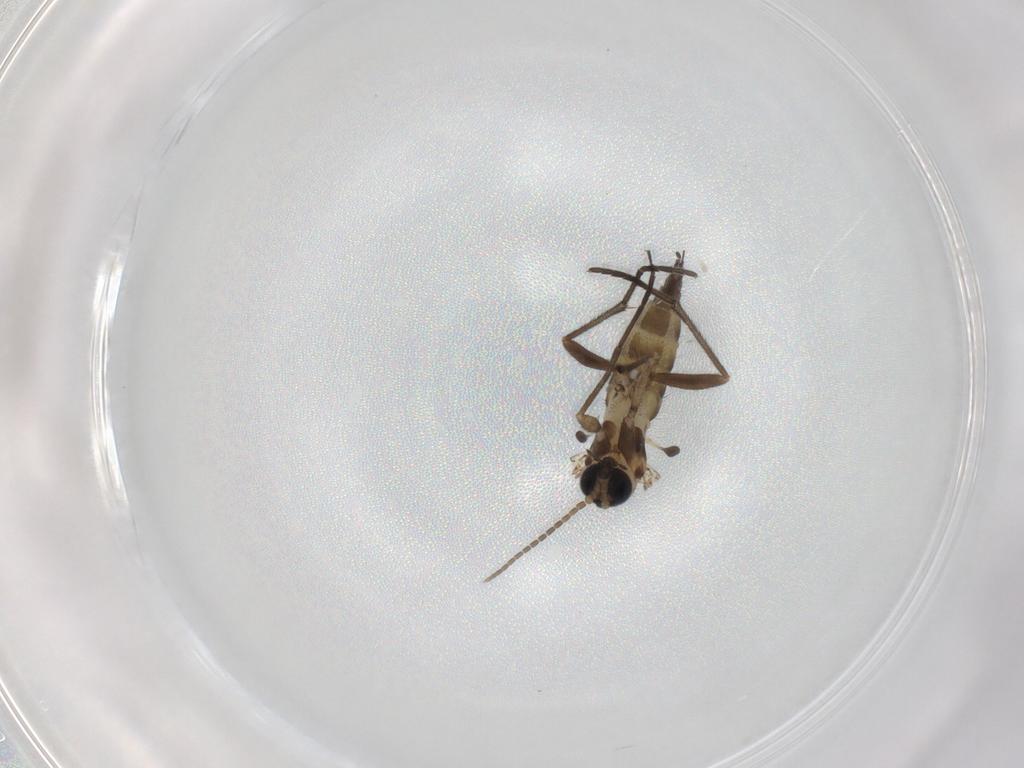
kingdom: Animalia
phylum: Arthropoda
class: Insecta
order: Diptera
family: Sciaridae
